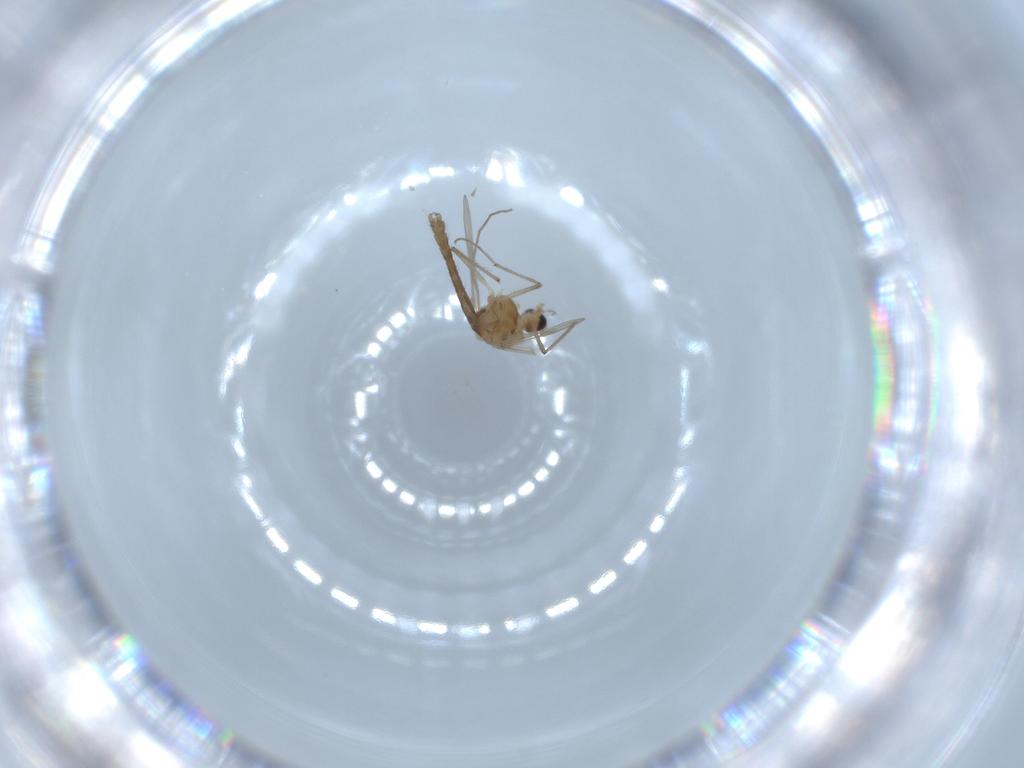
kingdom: Animalia
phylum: Arthropoda
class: Insecta
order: Diptera
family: Chironomidae
